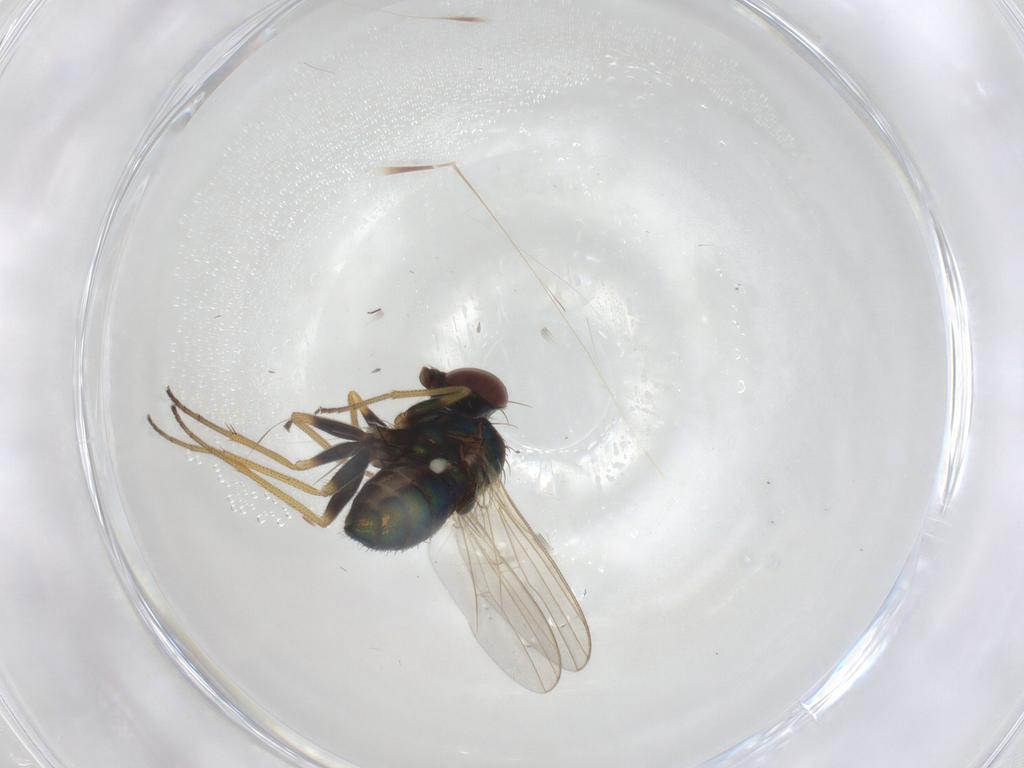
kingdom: Animalia
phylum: Arthropoda
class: Insecta
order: Diptera
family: Dolichopodidae
